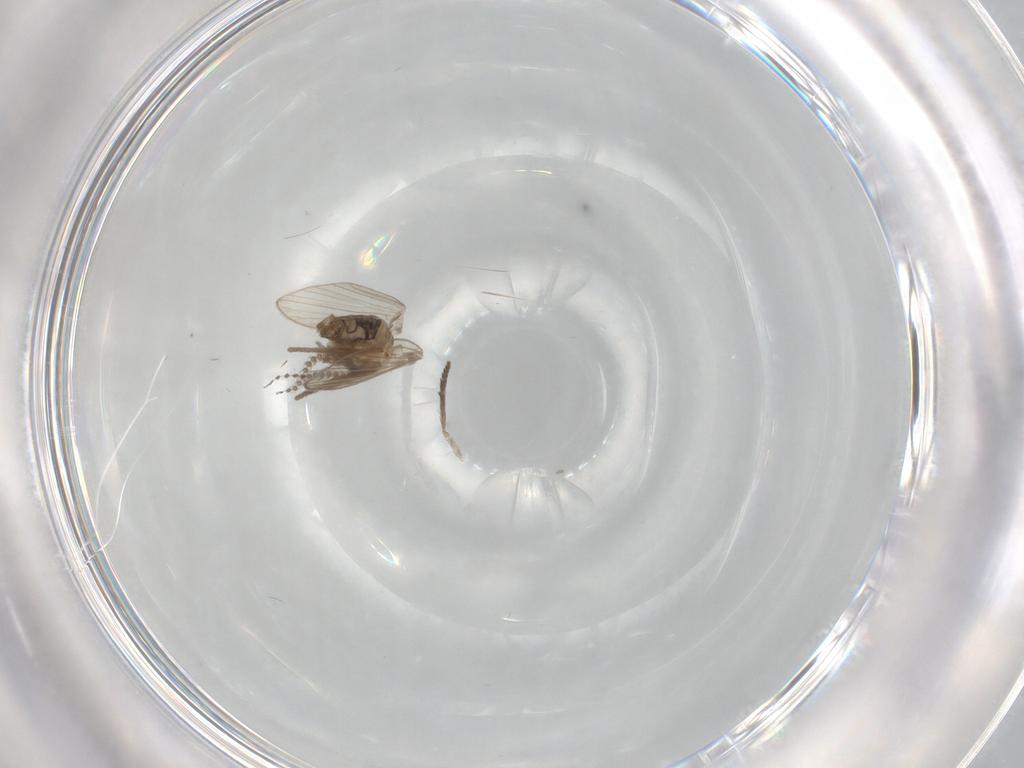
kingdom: Animalia
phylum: Arthropoda
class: Insecta
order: Diptera
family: Psychodidae
